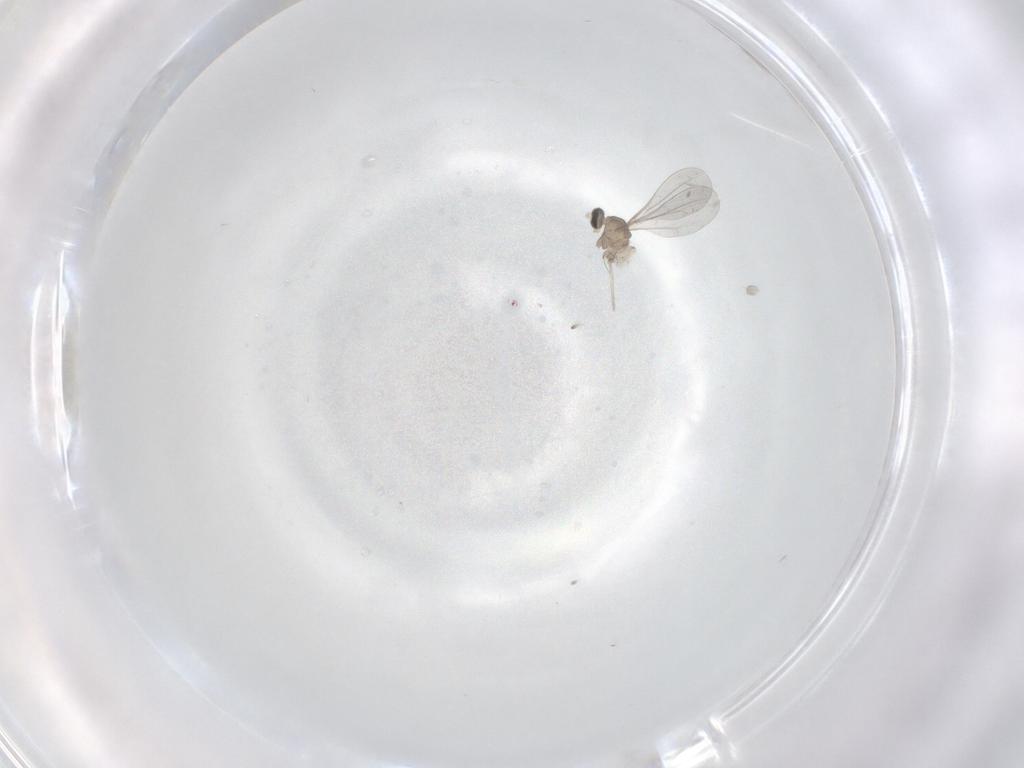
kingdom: Animalia
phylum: Arthropoda
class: Insecta
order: Diptera
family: Cecidomyiidae
